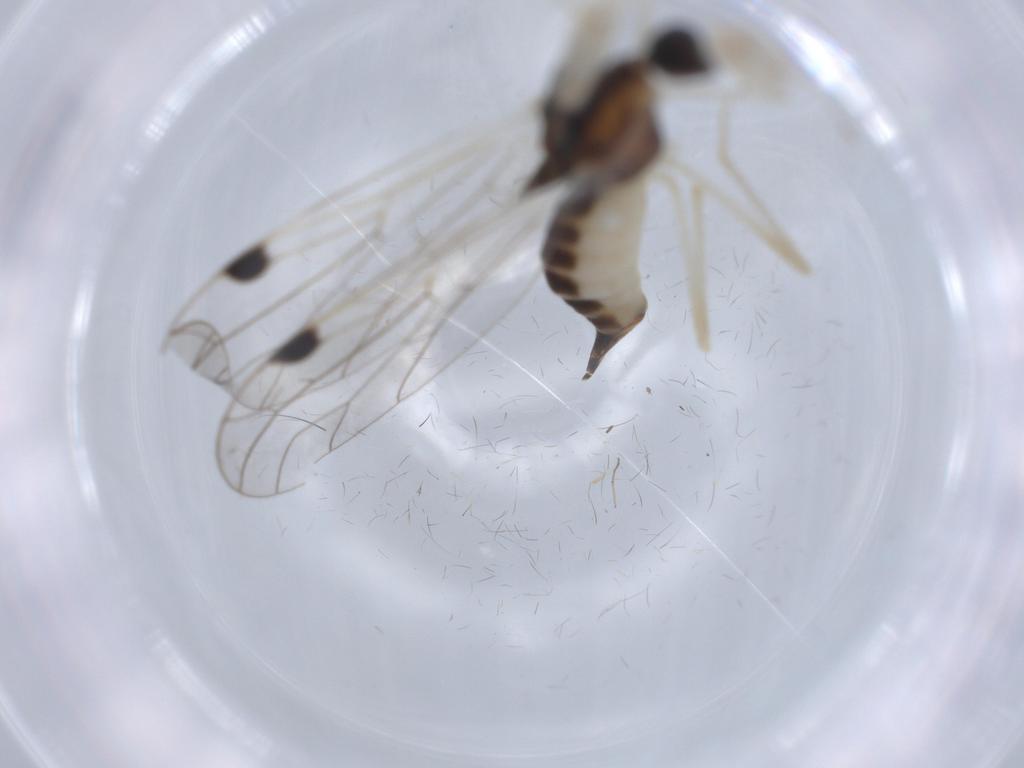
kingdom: Animalia
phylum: Arthropoda
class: Insecta
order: Diptera
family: Empididae
